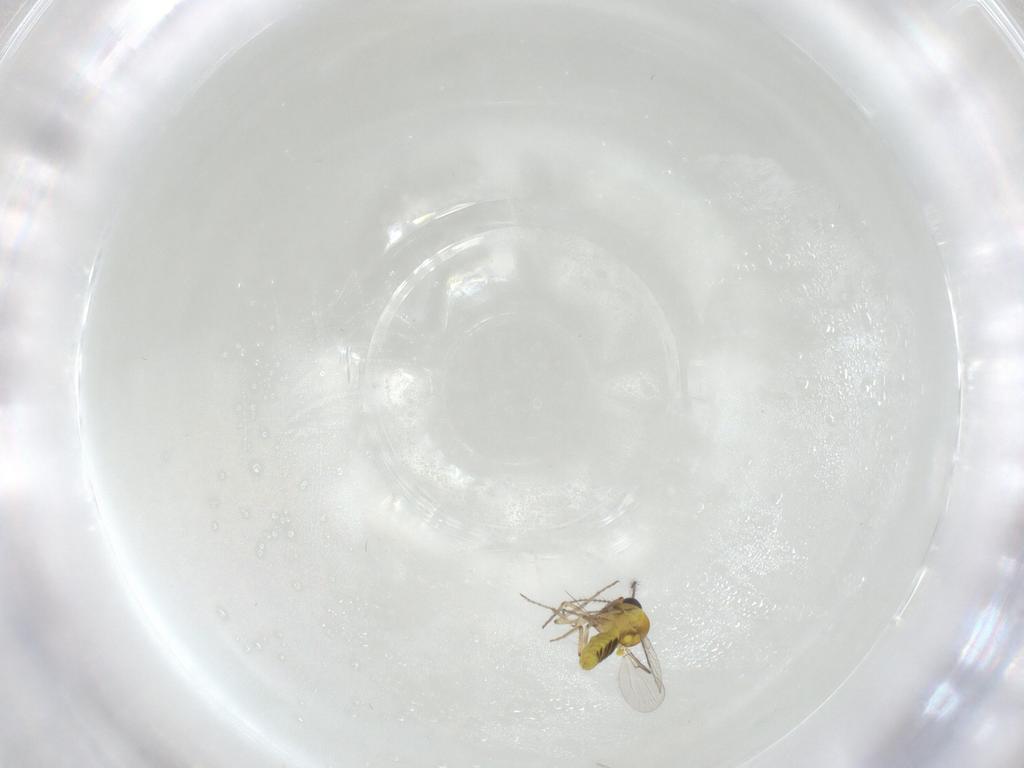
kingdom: Animalia
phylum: Arthropoda
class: Insecta
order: Diptera
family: Ceratopogonidae
